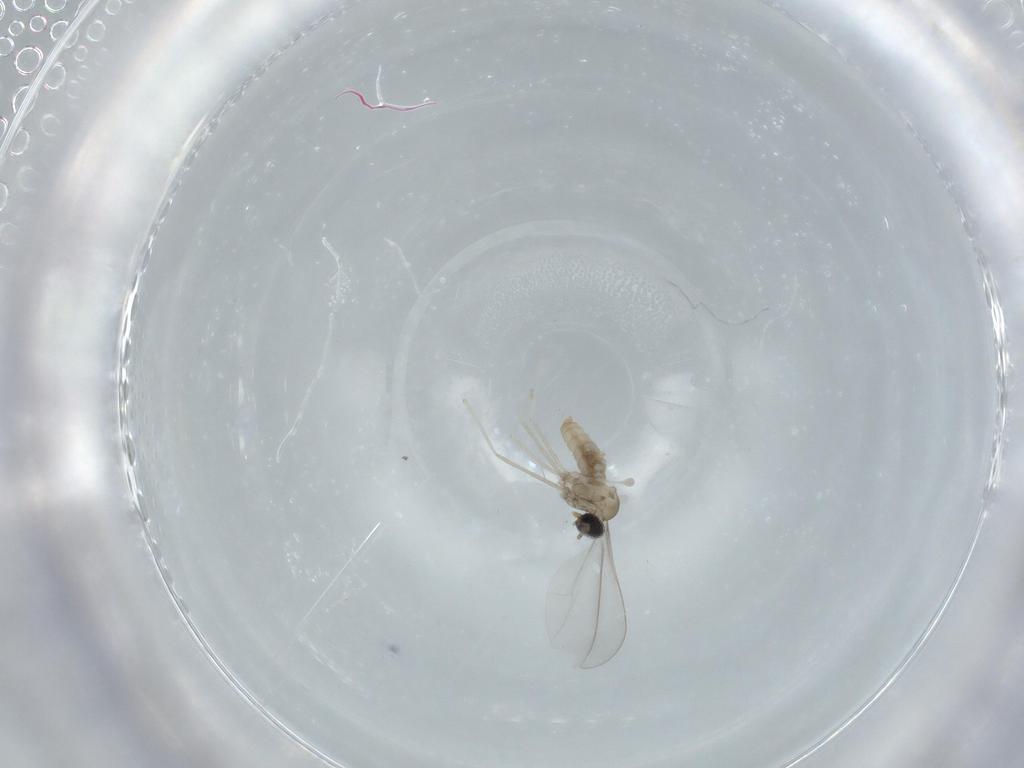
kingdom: Animalia
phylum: Arthropoda
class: Insecta
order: Diptera
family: Cecidomyiidae
